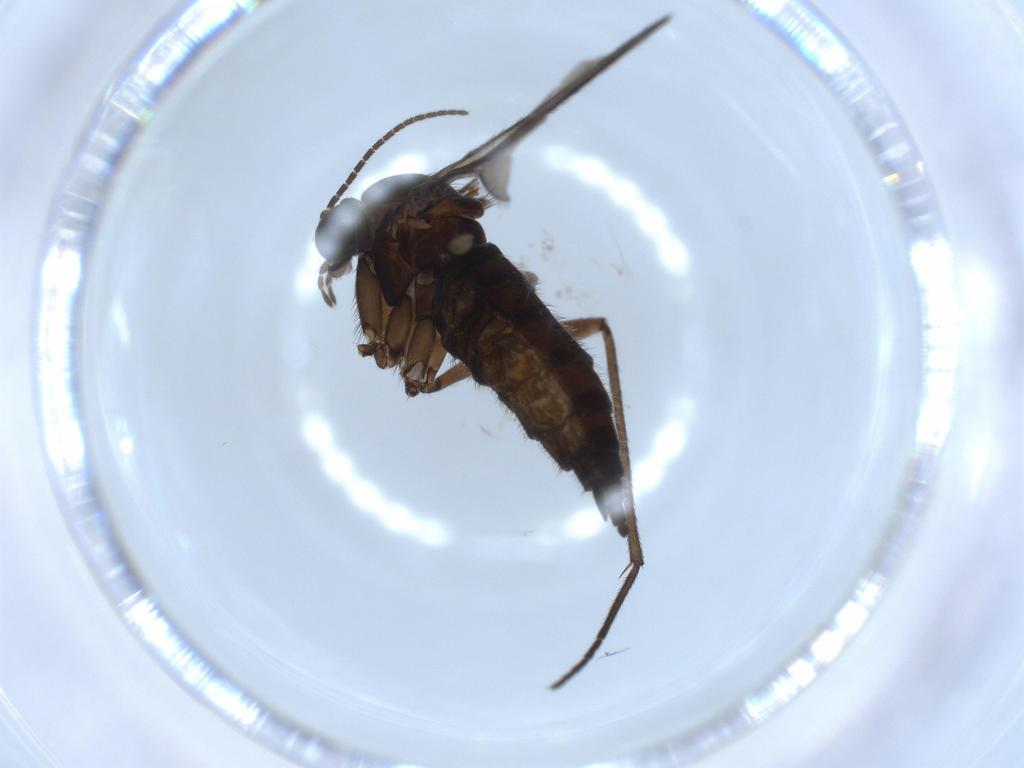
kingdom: Animalia
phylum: Arthropoda
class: Insecta
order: Diptera
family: Sciaridae
